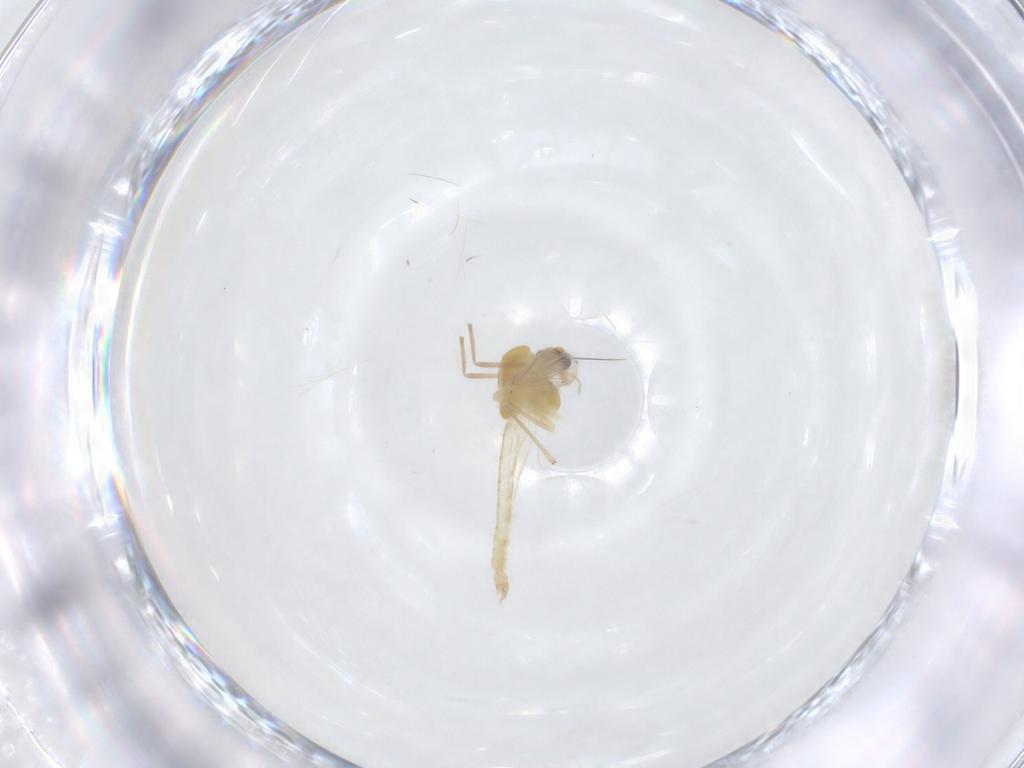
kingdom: Animalia
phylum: Arthropoda
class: Insecta
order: Diptera
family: Chironomidae
